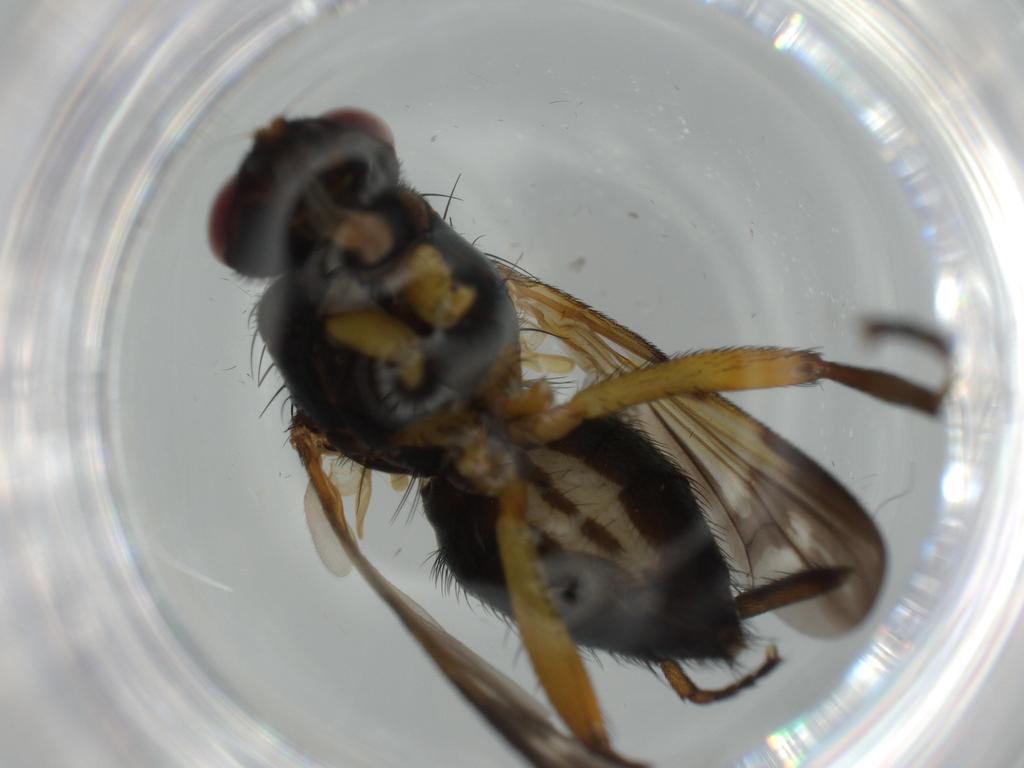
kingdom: Animalia
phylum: Arthropoda
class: Insecta
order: Diptera
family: Calliphoridae
